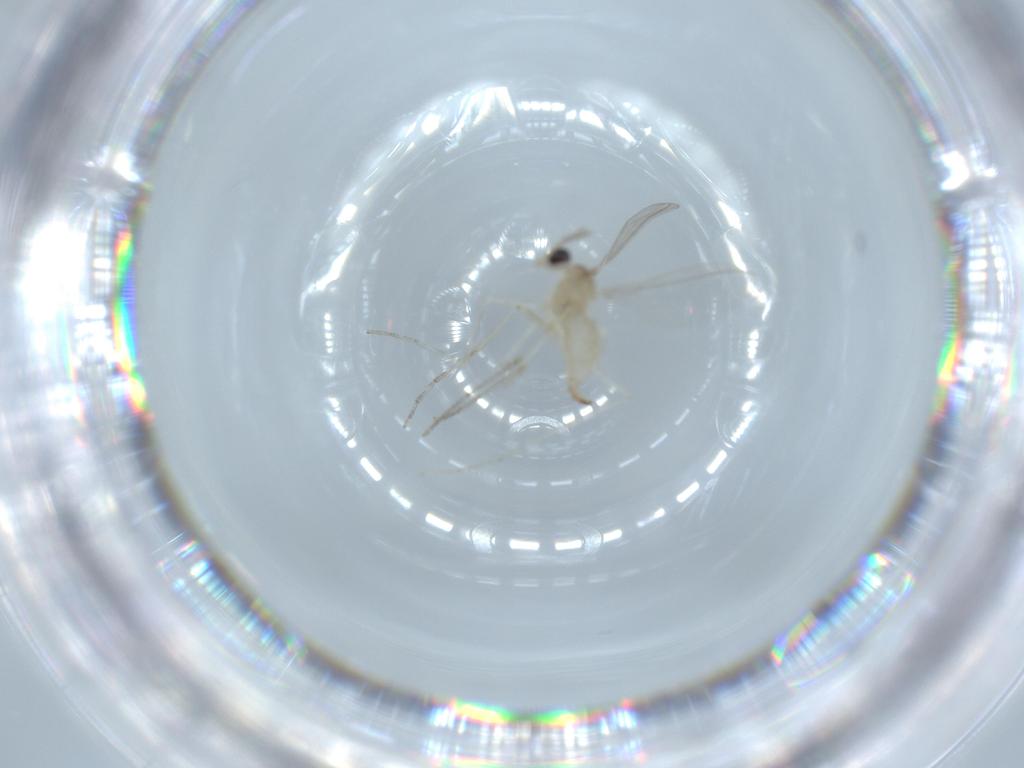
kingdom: Animalia
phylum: Arthropoda
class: Insecta
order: Diptera
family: Cecidomyiidae
